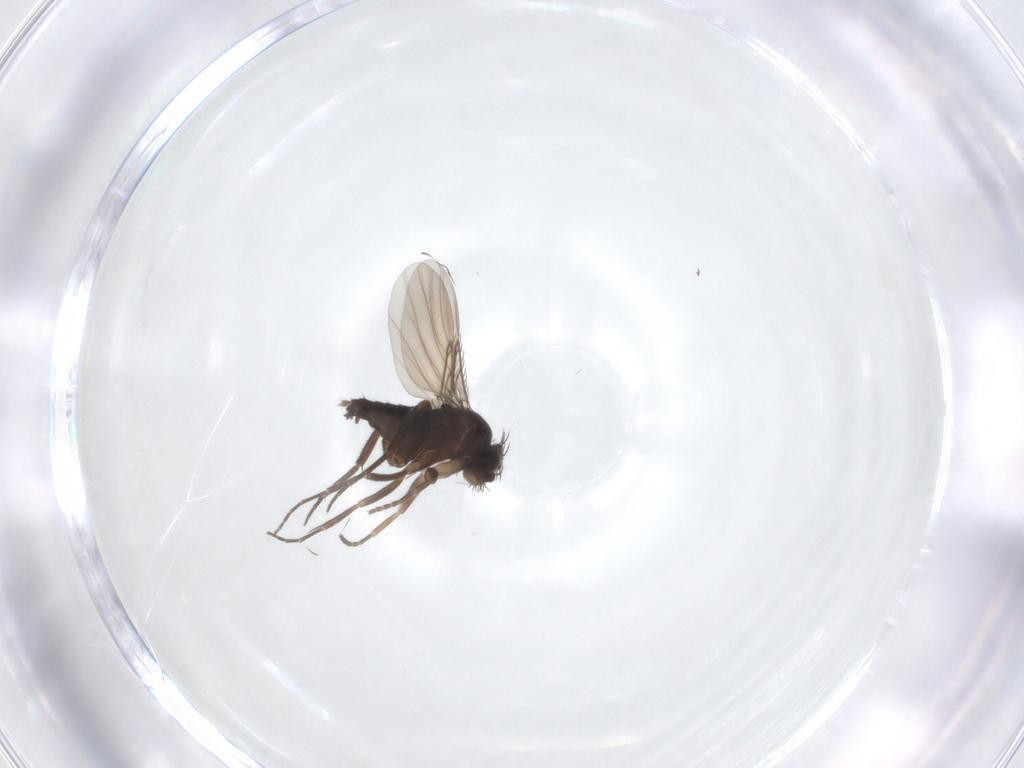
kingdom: Animalia
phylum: Arthropoda
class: Insecta
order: Diptera
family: Phoridae
